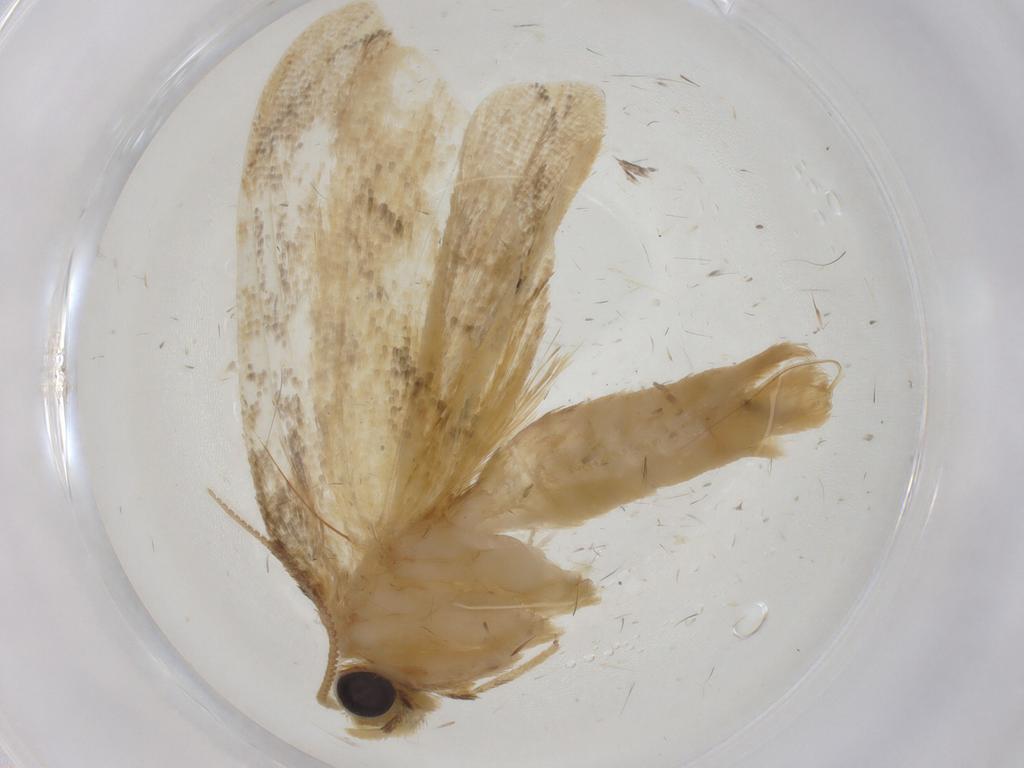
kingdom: Animalia
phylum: Arthropoda
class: Insecta
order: Lepidoptera
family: Psychidae
